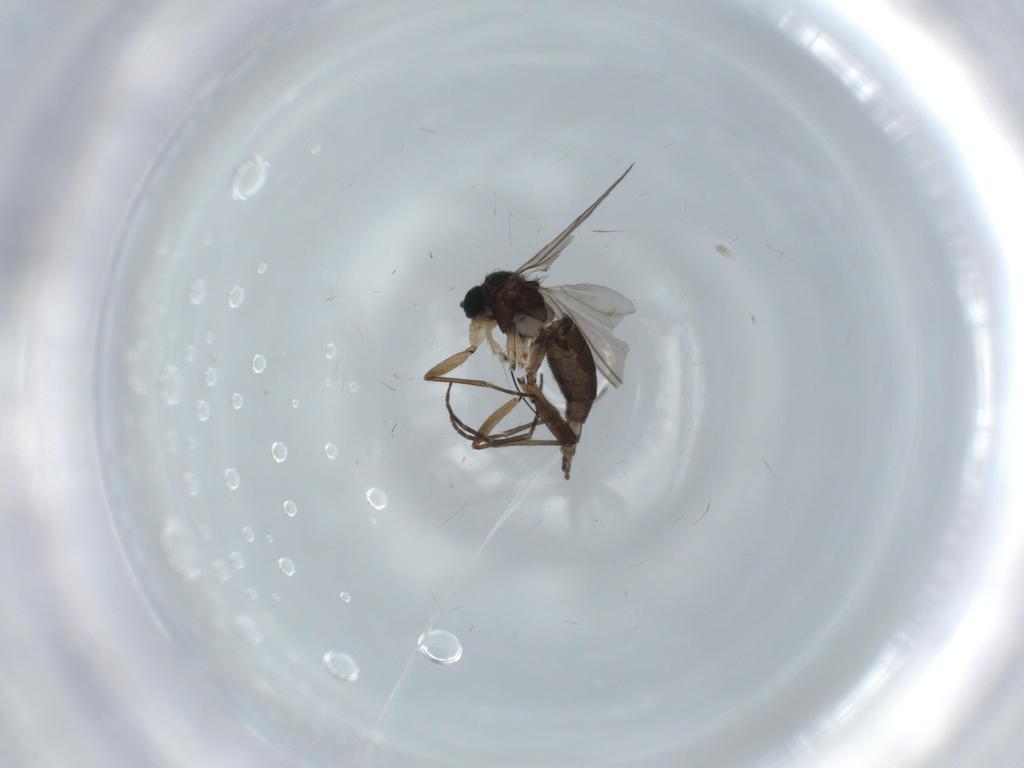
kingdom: Animalia
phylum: Arthropoda
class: Insecta
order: Diptera
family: Sciaridae
